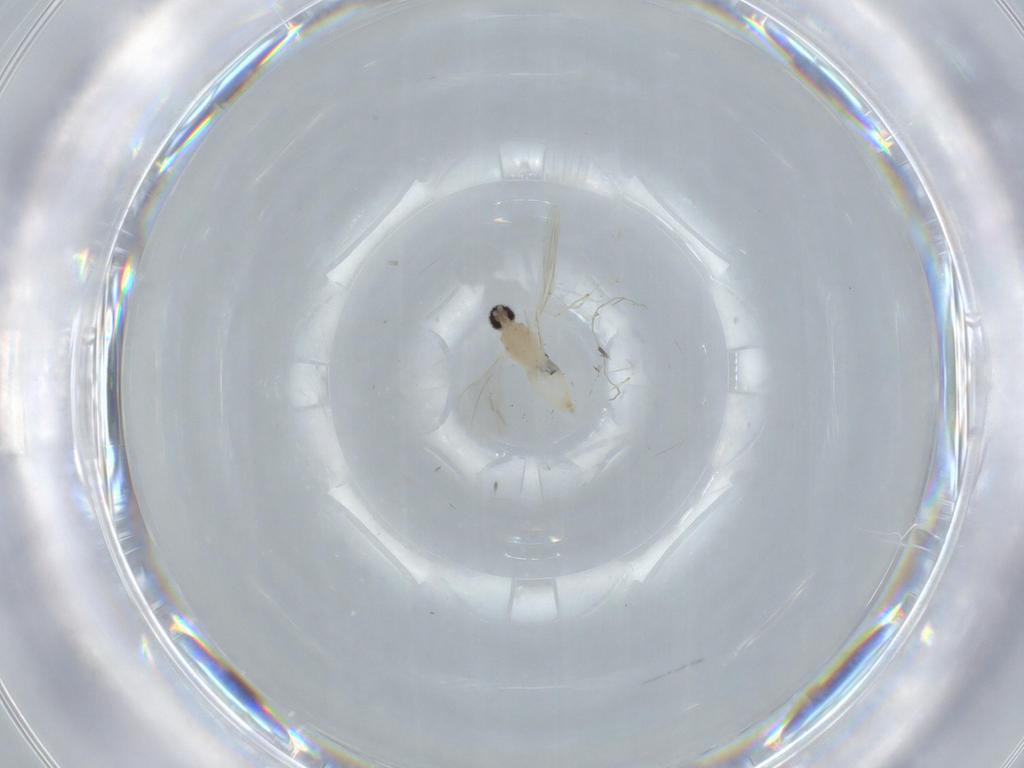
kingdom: Animalia
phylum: Arthropoda
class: Insecta
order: Diptera
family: Cecidomyiidae
